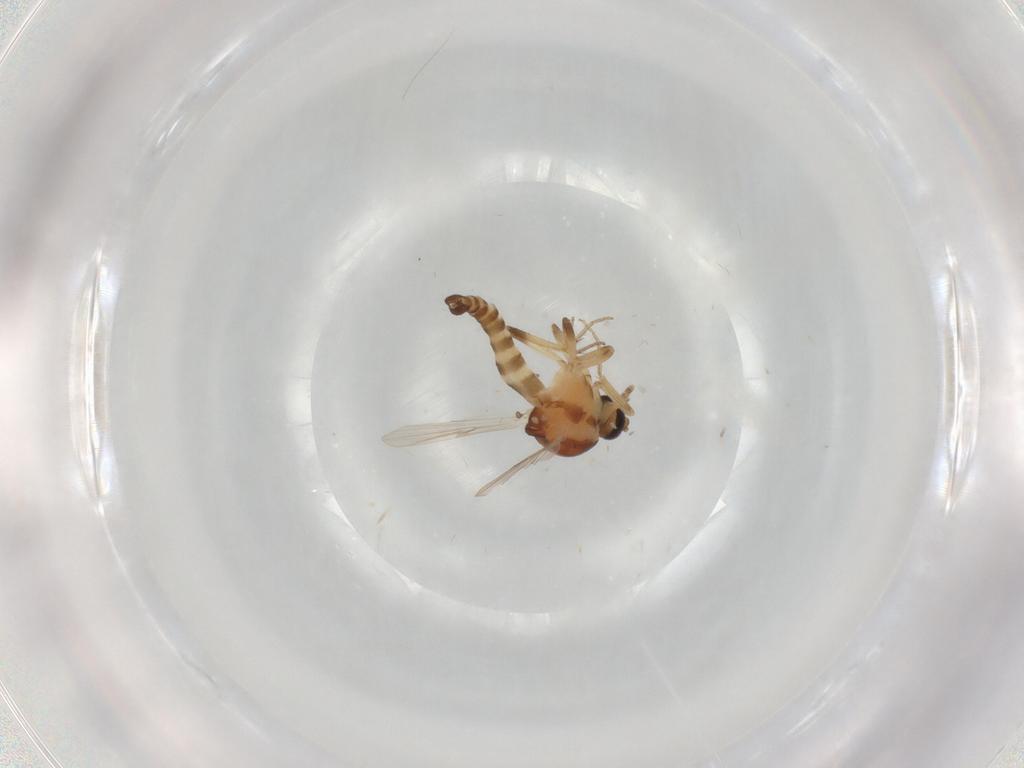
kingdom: Animalia
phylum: Arthropoda
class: Insecta
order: Diptera
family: Ceratopogonidae
